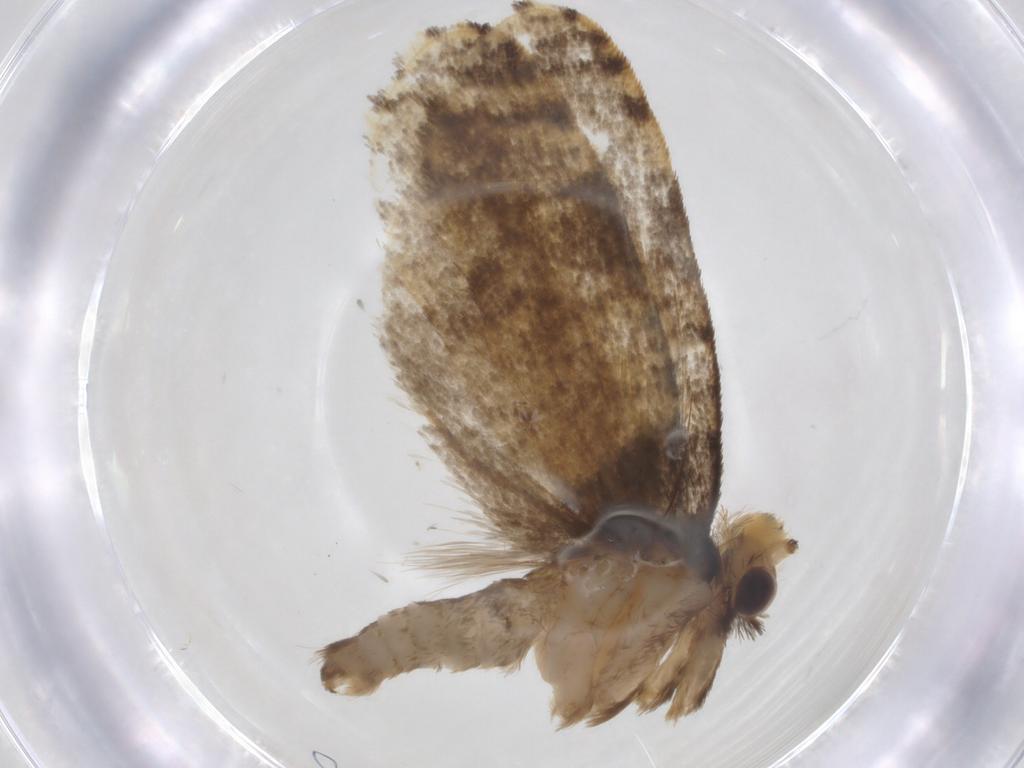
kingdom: Animalia
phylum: Arthropoda
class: Insecta
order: Lepidoptera
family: Psychidae
